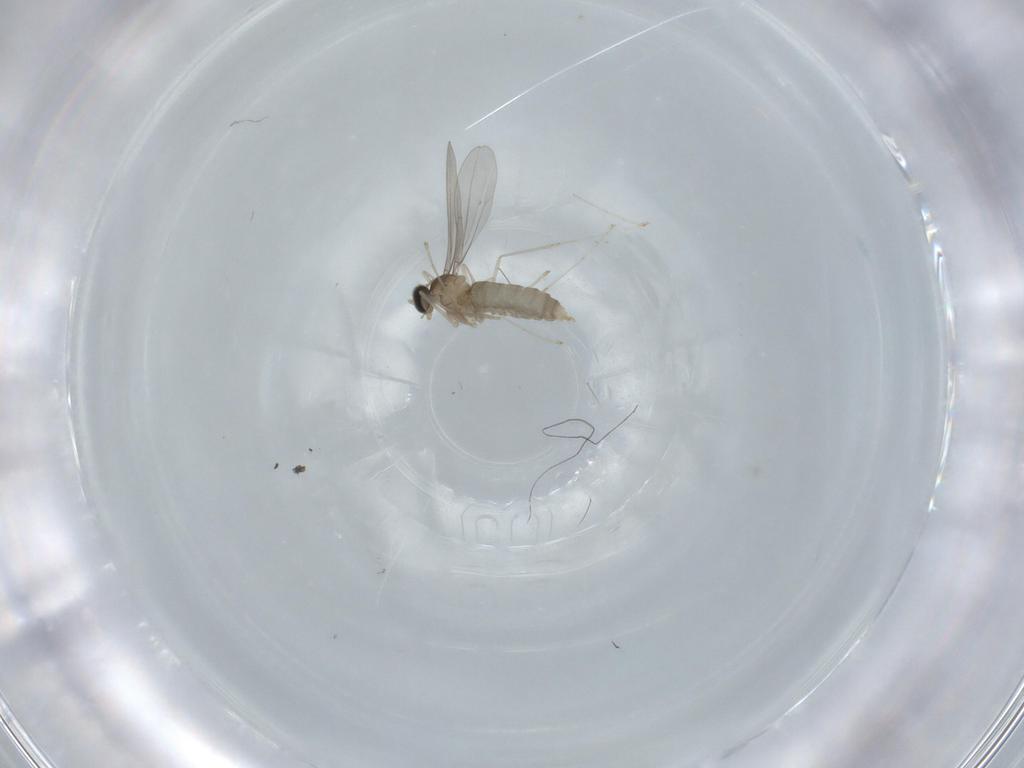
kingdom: Animalia
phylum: Arthropoda
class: Insecta
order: Diptera
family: Cecidomyiidae
